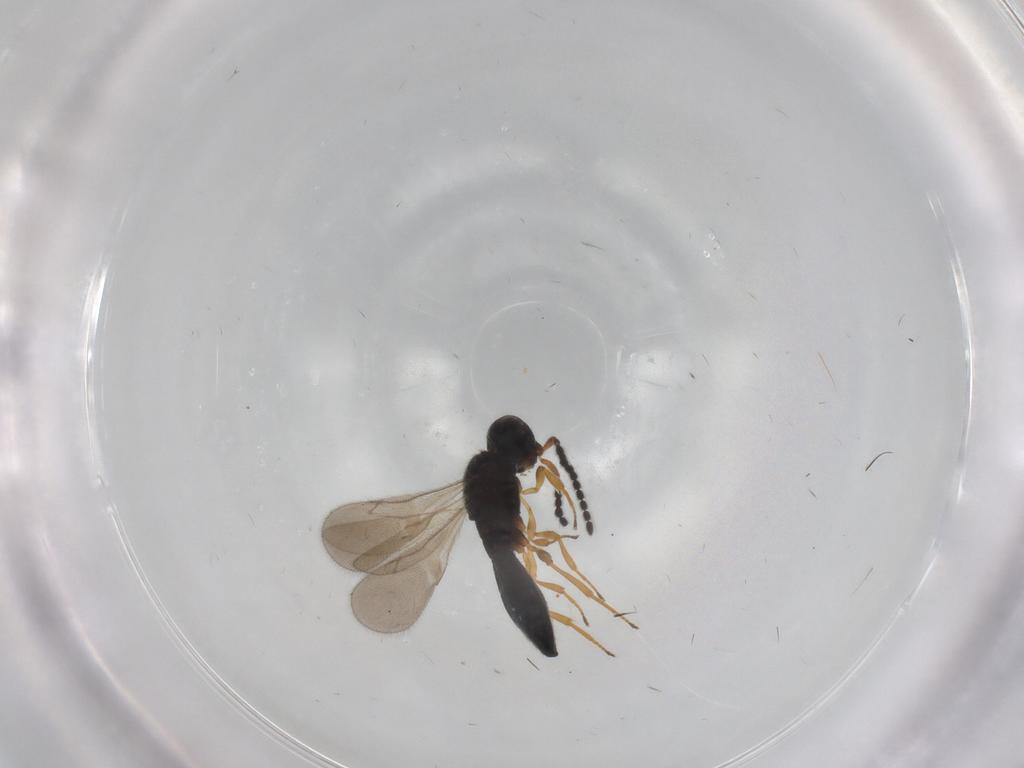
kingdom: Animalia
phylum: Arthropoda
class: Insecta
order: Hymenoptera
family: Scelionidae
